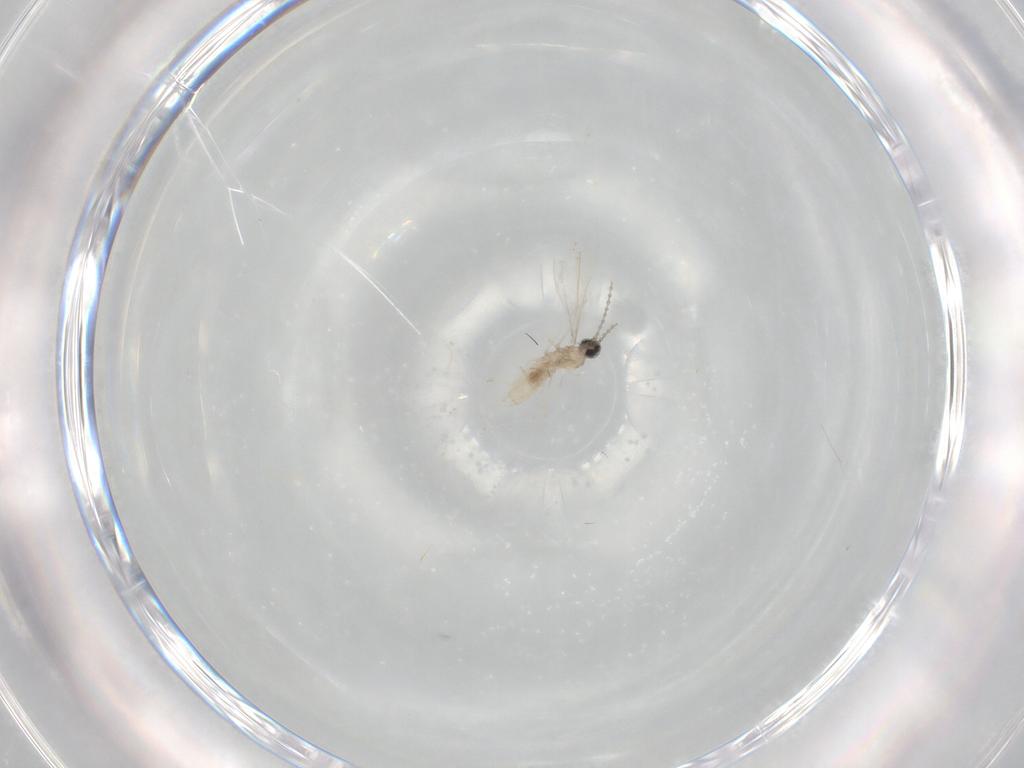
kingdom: Animalia
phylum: Arthropoda
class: Insecta
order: Diptera
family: Cecidomyiidae
